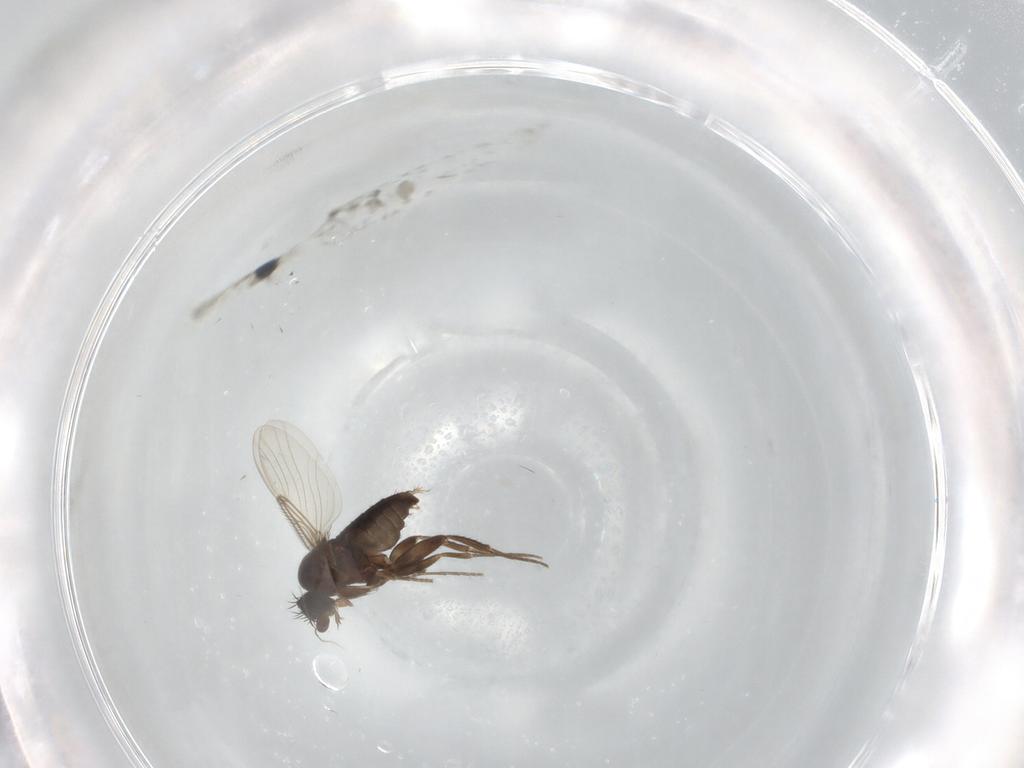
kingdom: Animalia
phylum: Arthropoda
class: Insecta
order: Diptera
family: Phoridae
